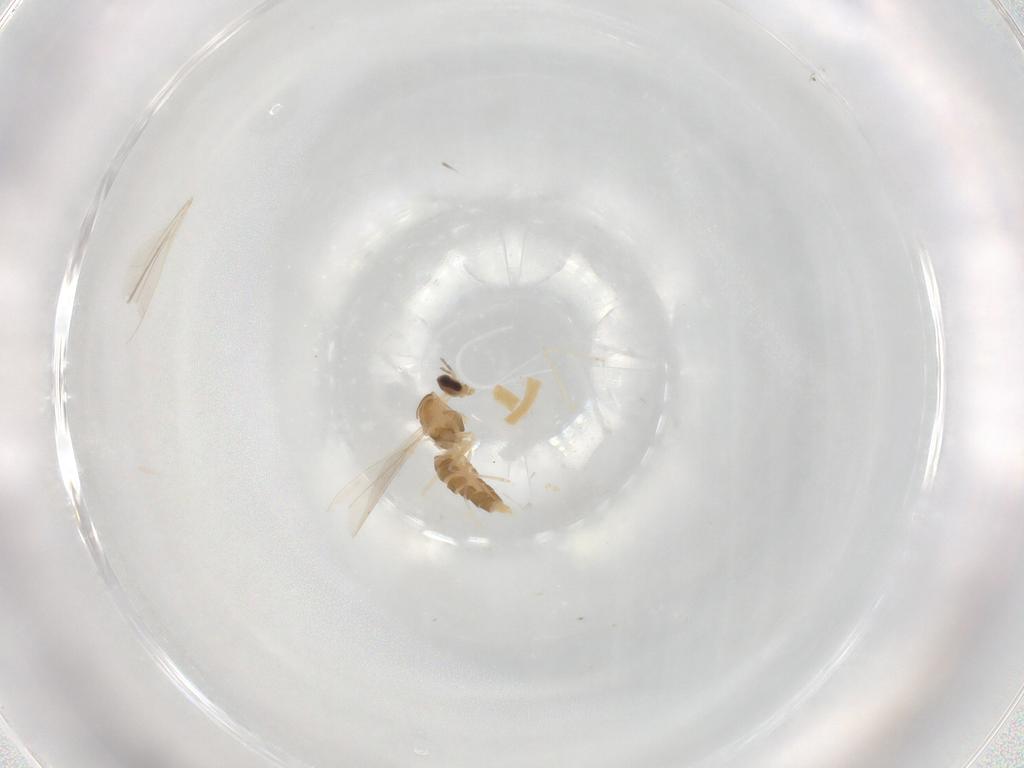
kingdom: Animalia
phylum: Arthropoda
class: Insecta
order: Diptera
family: Cecidomyiidae
